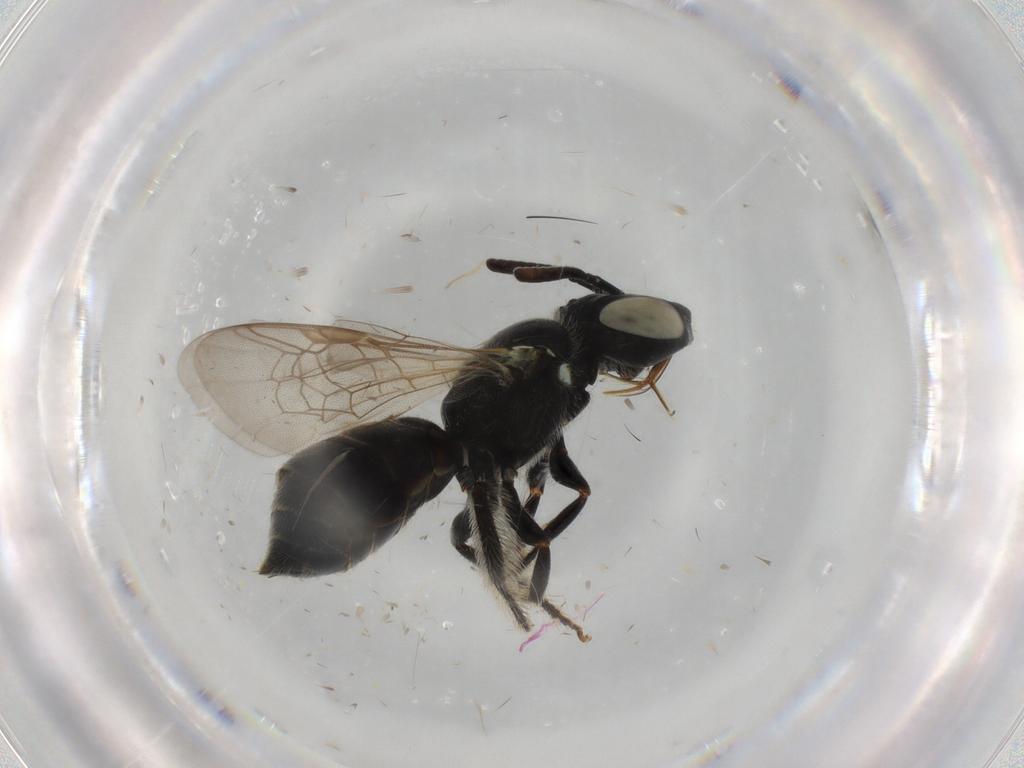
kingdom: Animalia
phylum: Arthropoda
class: Insecta
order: Hymenoptera
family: Apidae
